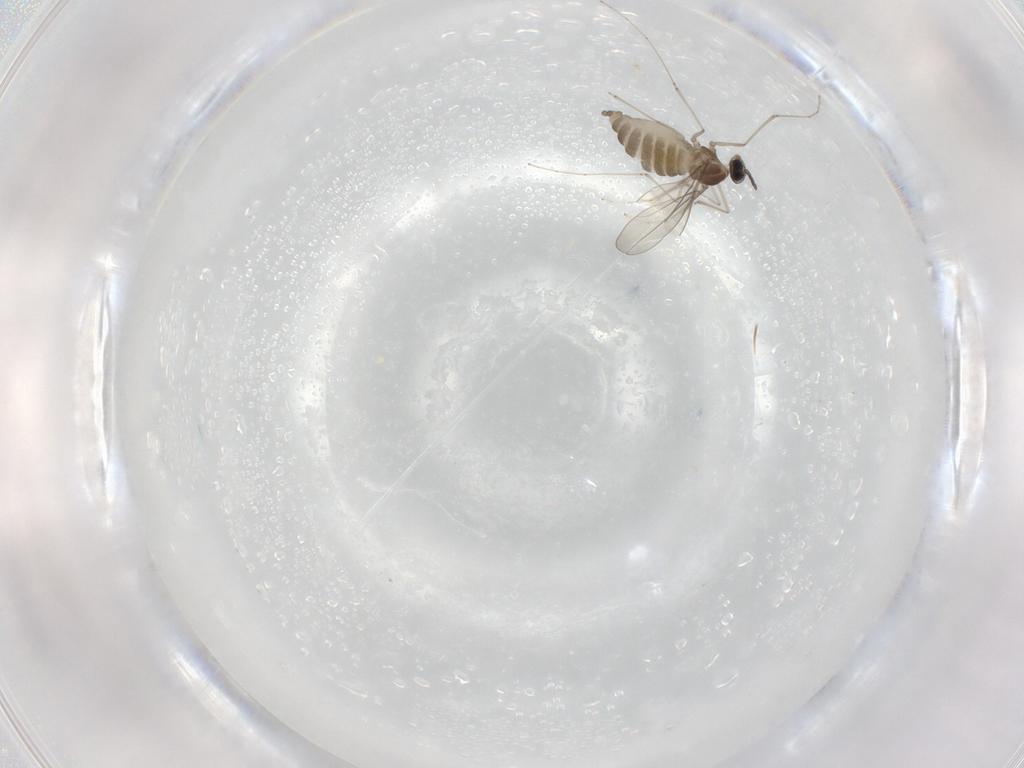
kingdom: Animalia
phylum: Arthropoda
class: Insecta
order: Diptera
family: Cecidomyiidae
